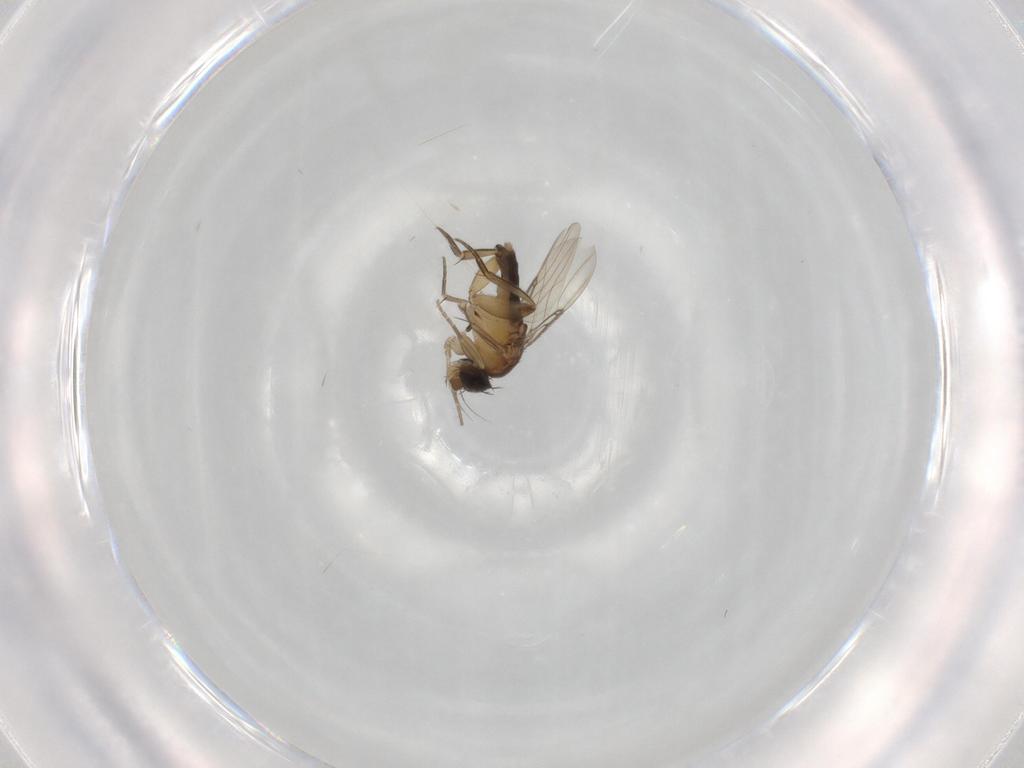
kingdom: Animalia
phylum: Arthropoda
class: Insecta
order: Diptera
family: Phoridae
